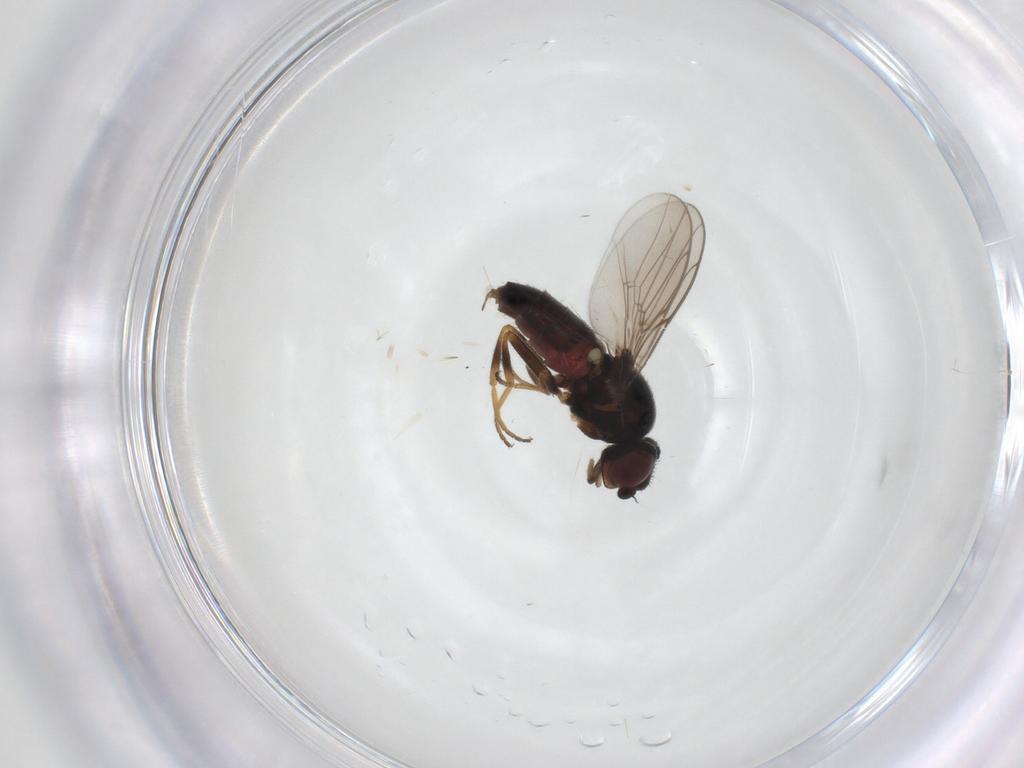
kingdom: Animalia
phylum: Arthropoda
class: Insecta
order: Diptera
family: Chloropidae
